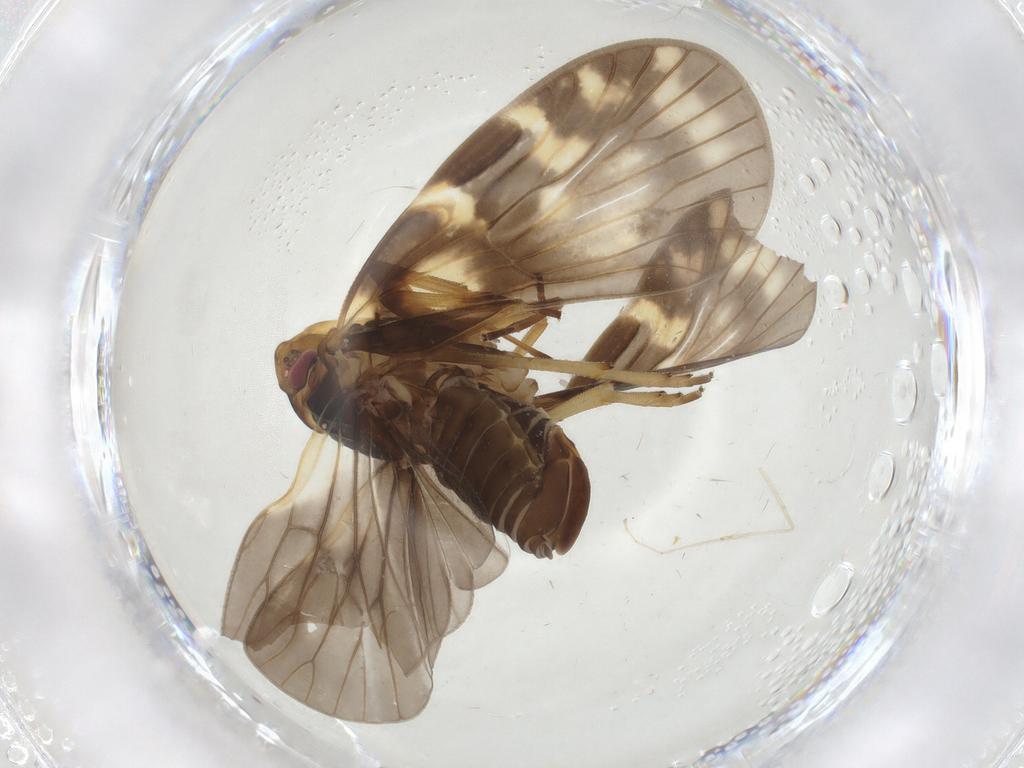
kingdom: Animalia
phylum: Arthropoda
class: Insecta
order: Hemiptera
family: Cixiidae
